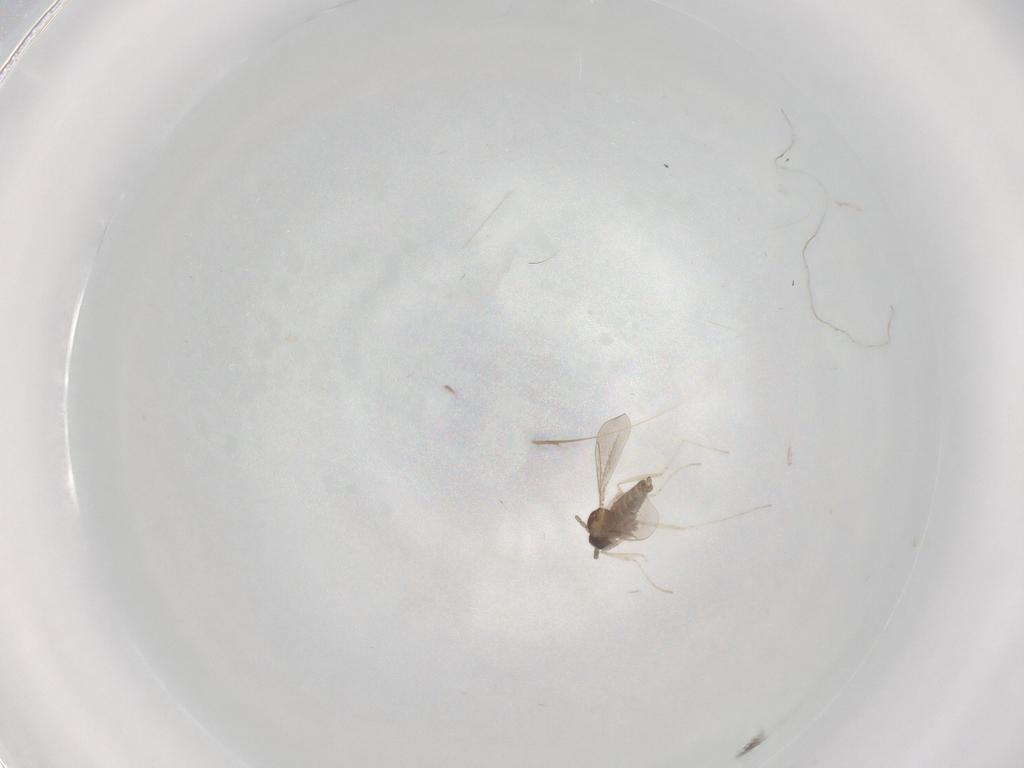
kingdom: Animalia
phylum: Arthropoda
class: Insecta
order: Diptera
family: Cecidomyiidae
